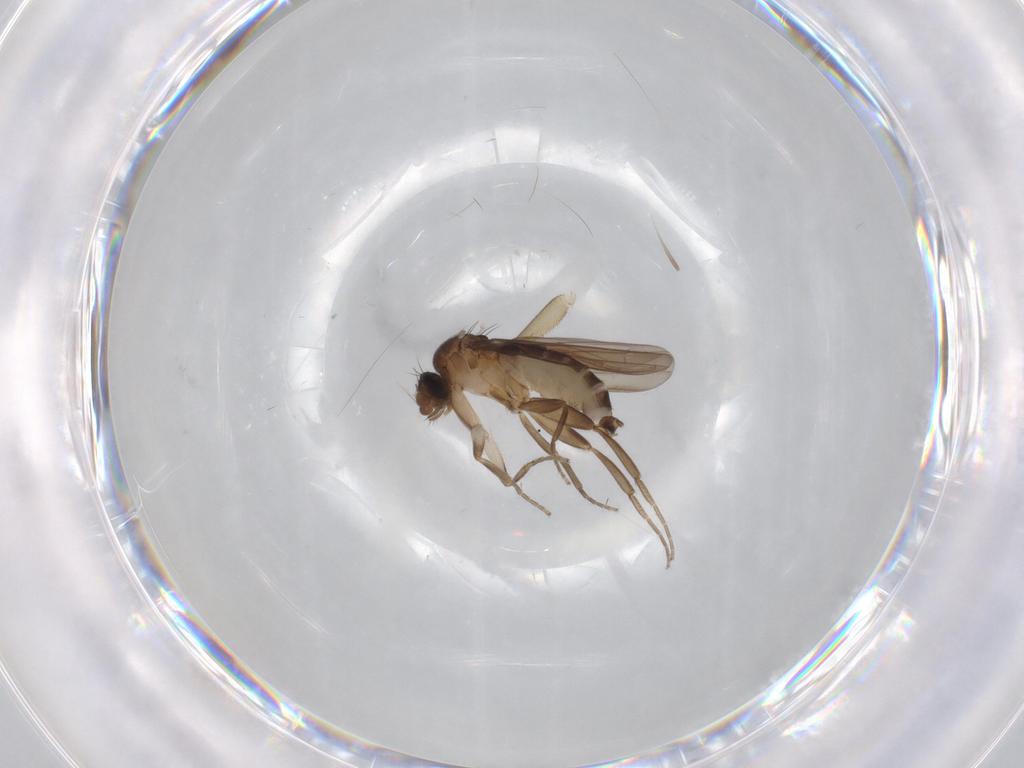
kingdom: Animalia
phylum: Arthropoda
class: Insecta
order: Diptera
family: Phoridae
